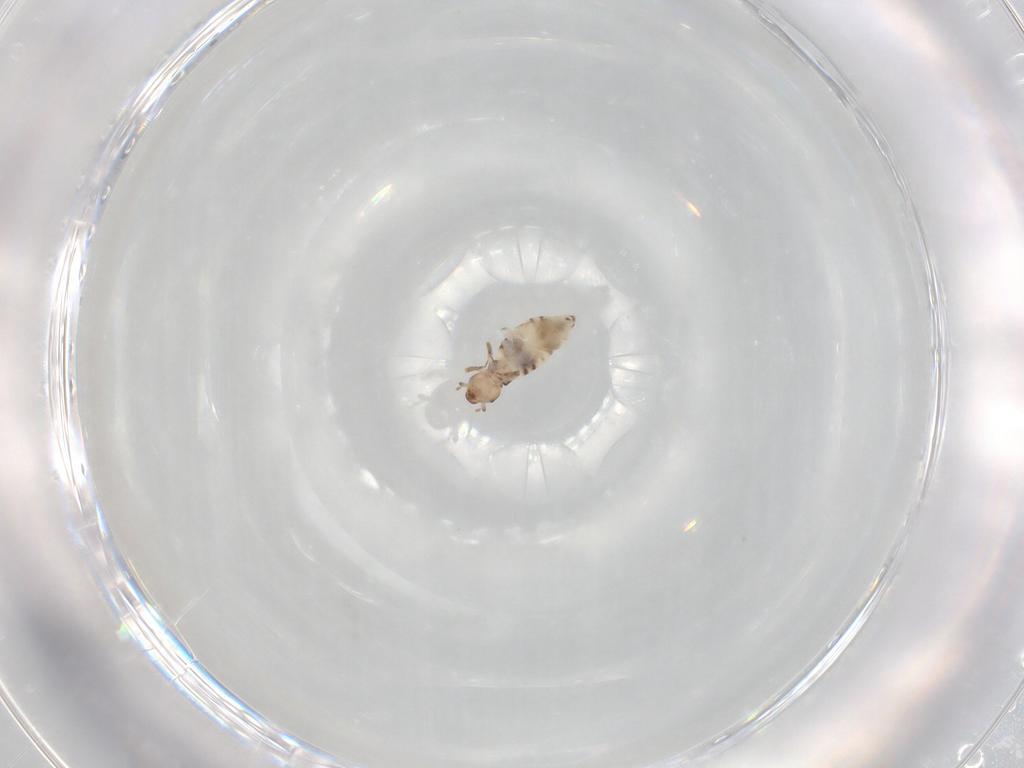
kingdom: Animalia
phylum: Arthropoda
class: Insecta
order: Psocodea
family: Liposcelididae
